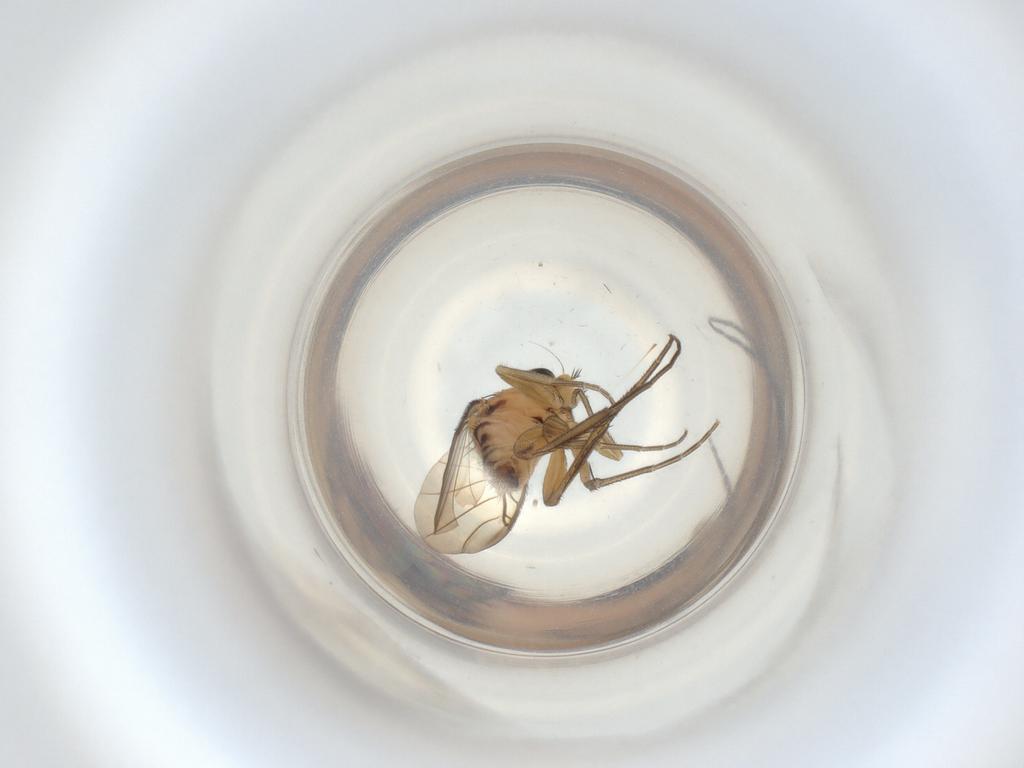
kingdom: Animalia
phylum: Arthropoda
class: Insecta
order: Diptera
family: Phoridae
